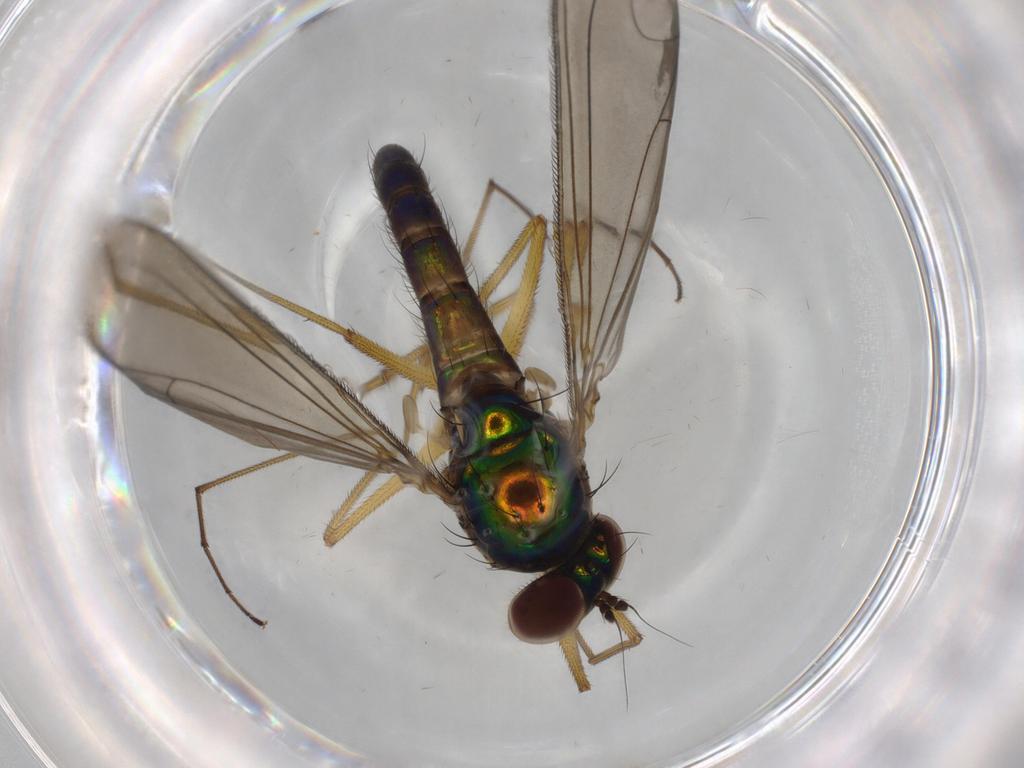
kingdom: Animalia
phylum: Arthropoda
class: Insecta
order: Diptera
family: Dolichopodidae
